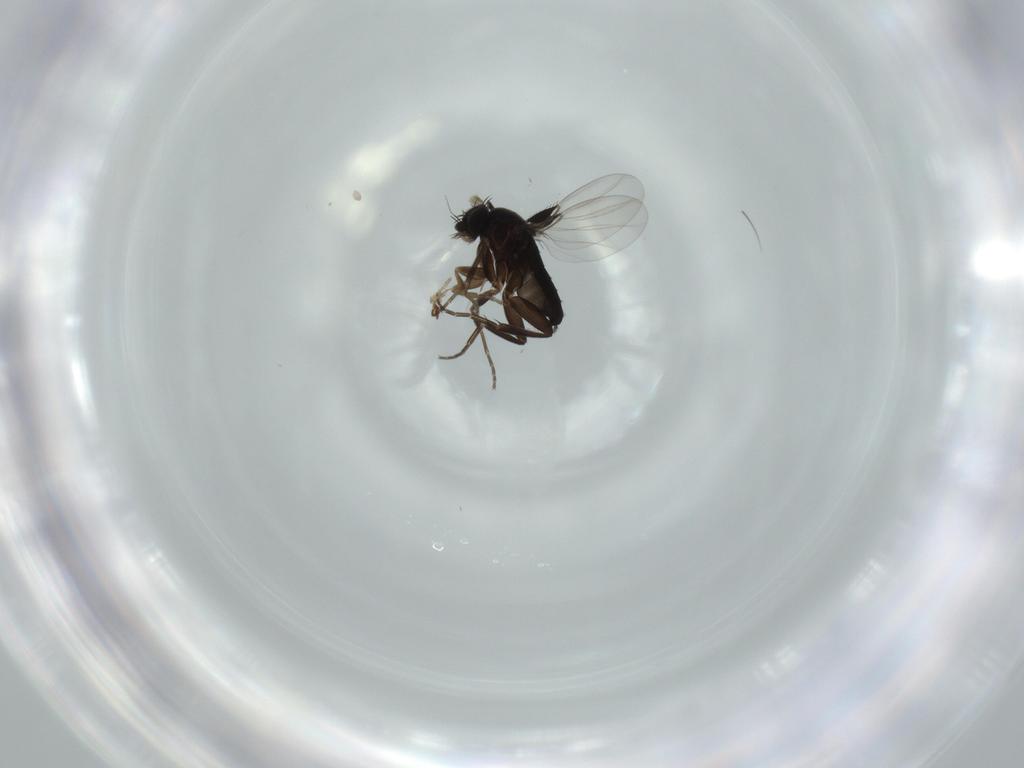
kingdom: Animalia
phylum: Arthropoda
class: Insecta
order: Diptera
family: Phoridae
